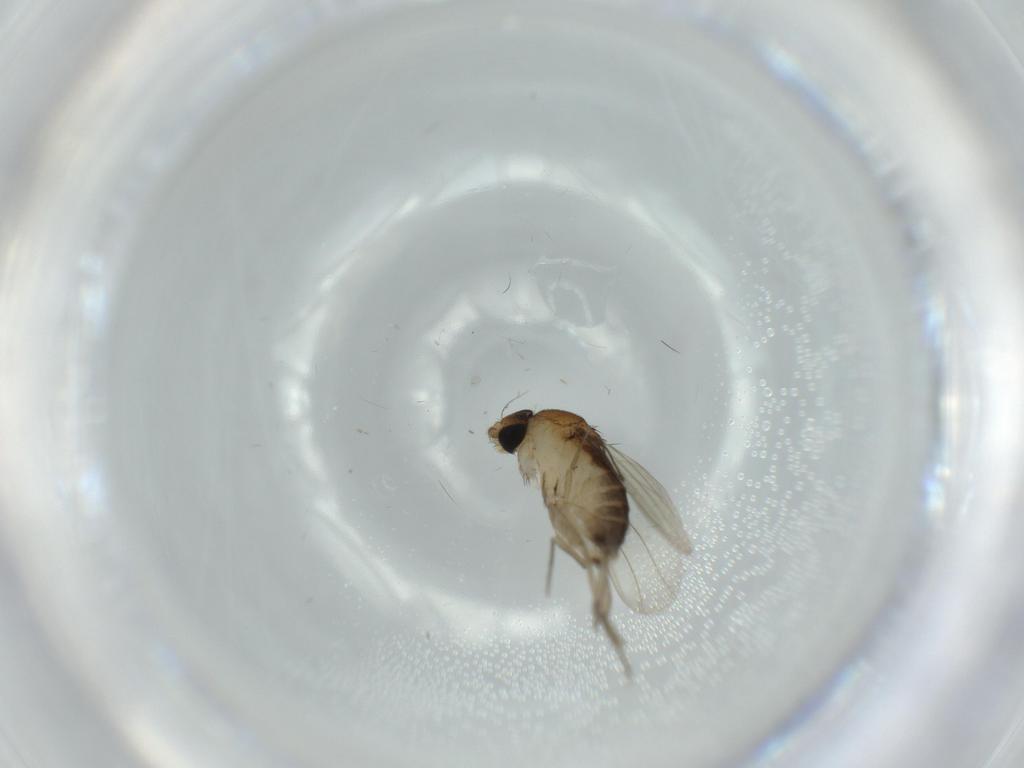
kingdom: Animalia
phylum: Arthropoda
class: Insecta
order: Diptera
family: Phoridae
